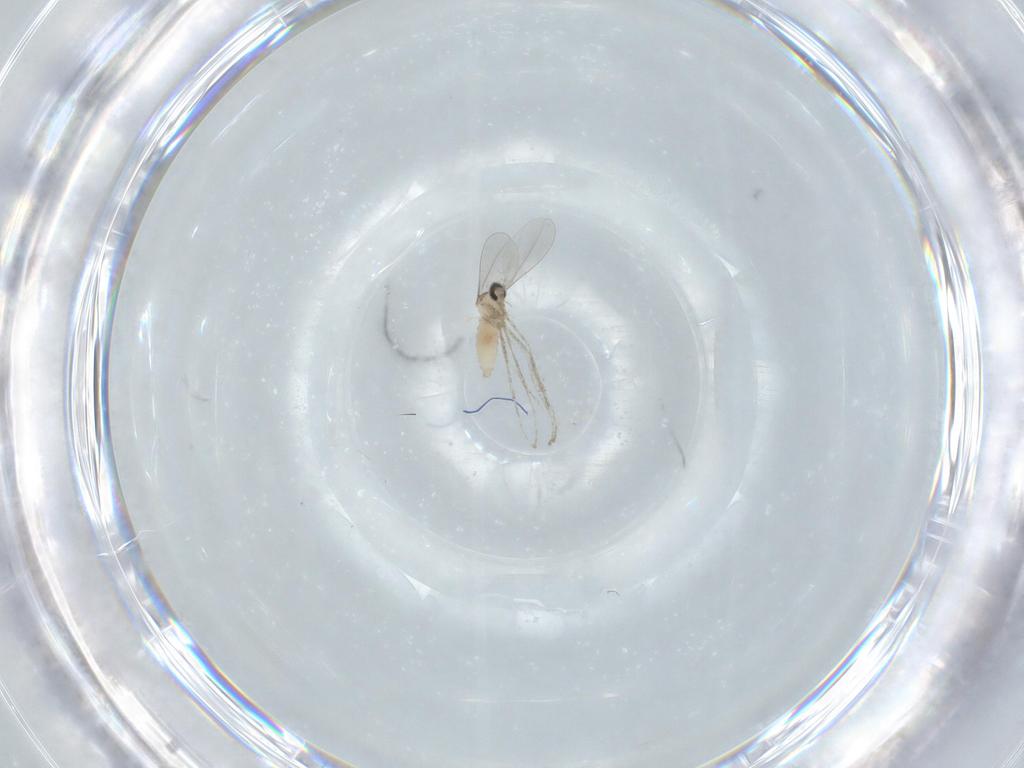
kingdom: Animalia
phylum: Arthropoda
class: Insecta
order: Diptera
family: Cecidomyiidae
